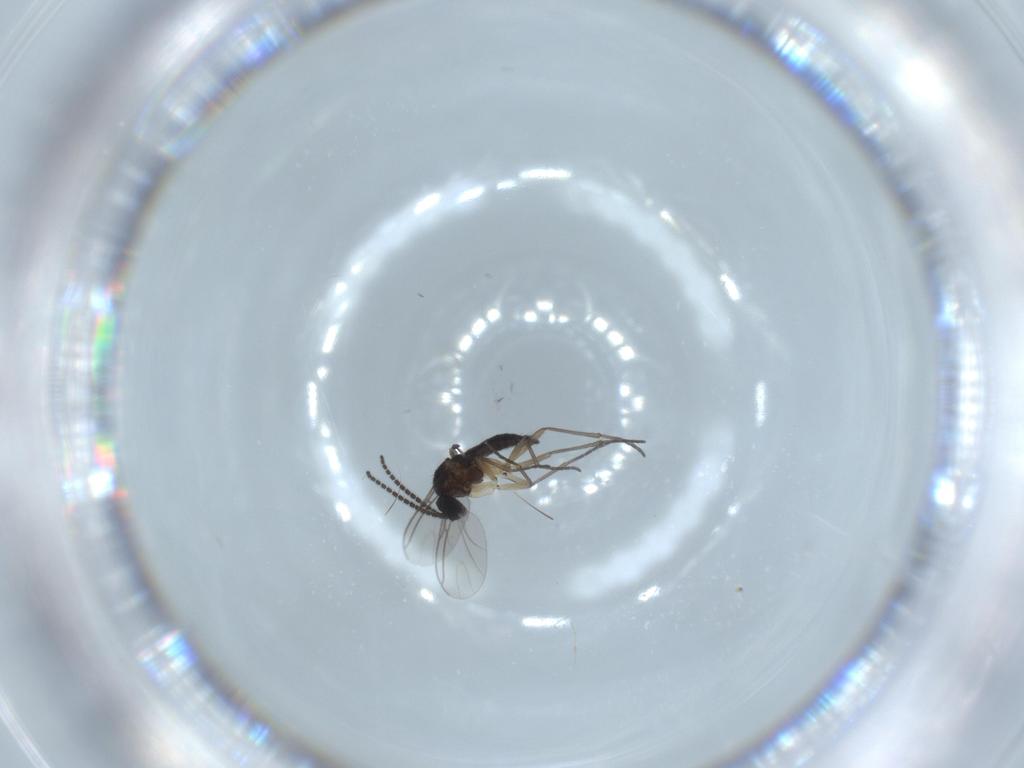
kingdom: Animalia
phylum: Arthropoda
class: Insecta
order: Diptera
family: Sciaridae
